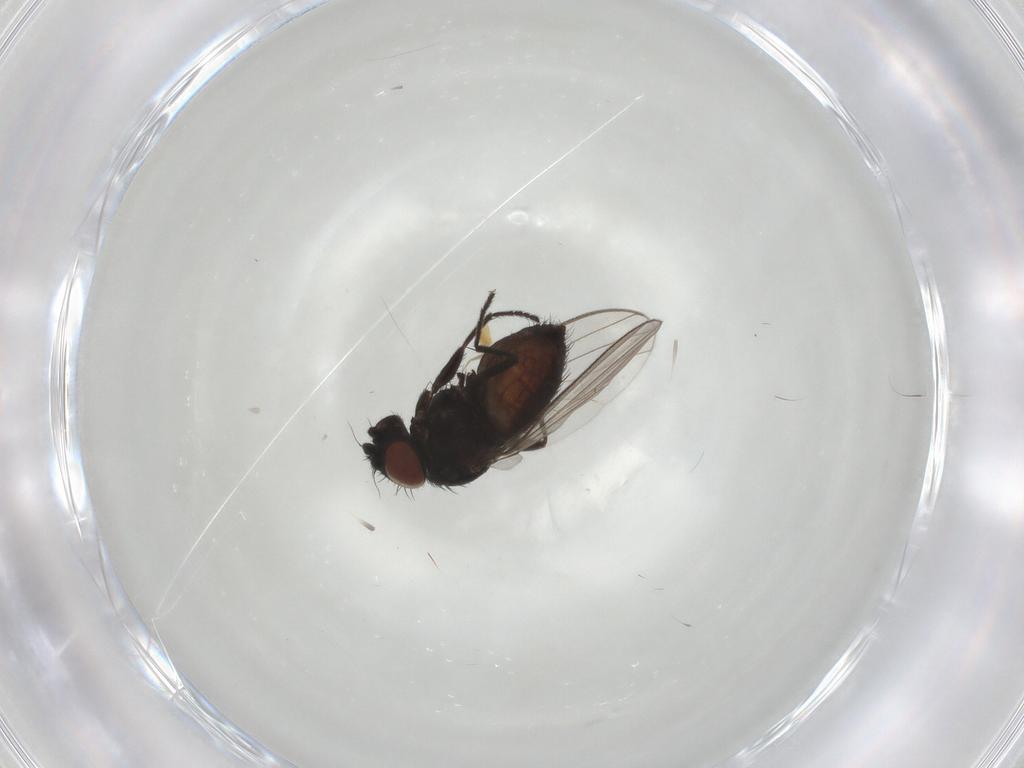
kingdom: Animalia
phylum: Arthropoda
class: Insecta
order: Diptera
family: Milichiidae
